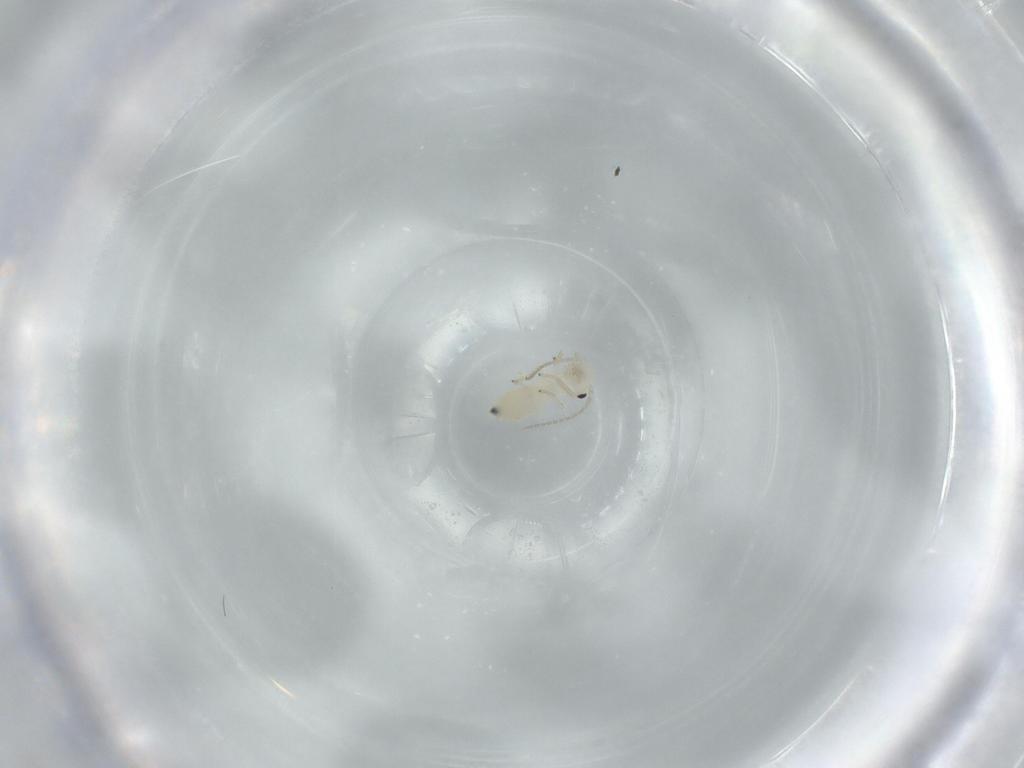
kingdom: Animalia
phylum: Arthropoda
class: Insecta
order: Psocodea
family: Caeciliusidae
